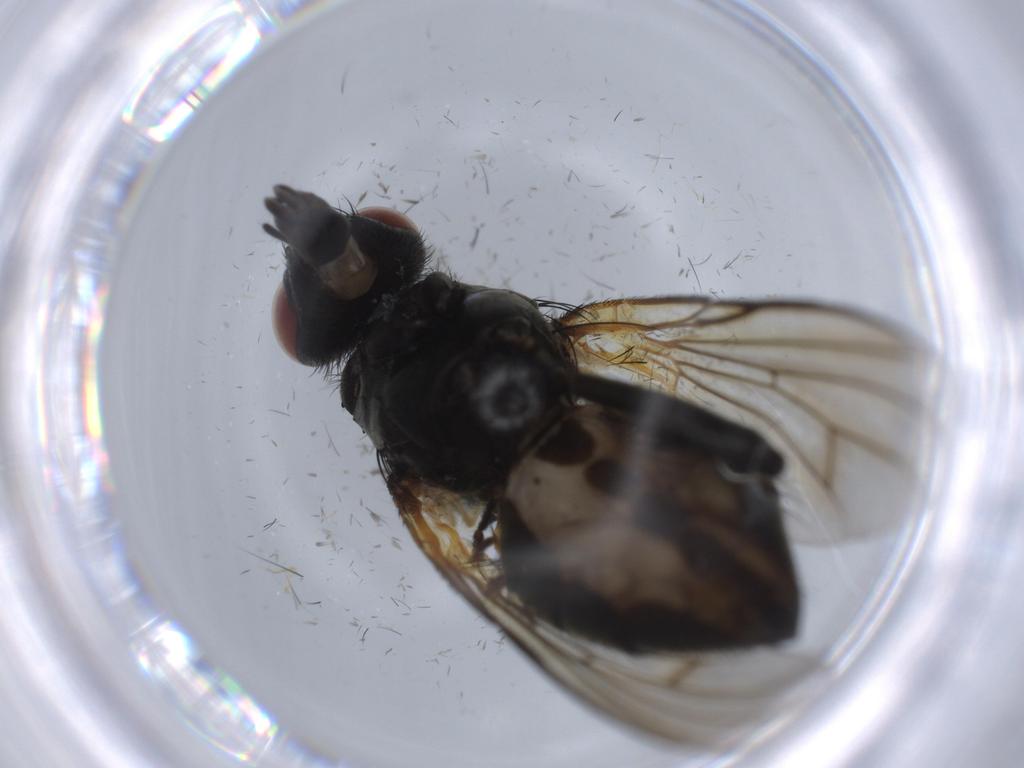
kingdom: Animalia
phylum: Arthropoda
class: Insecta
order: Diptera
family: Muscidae
